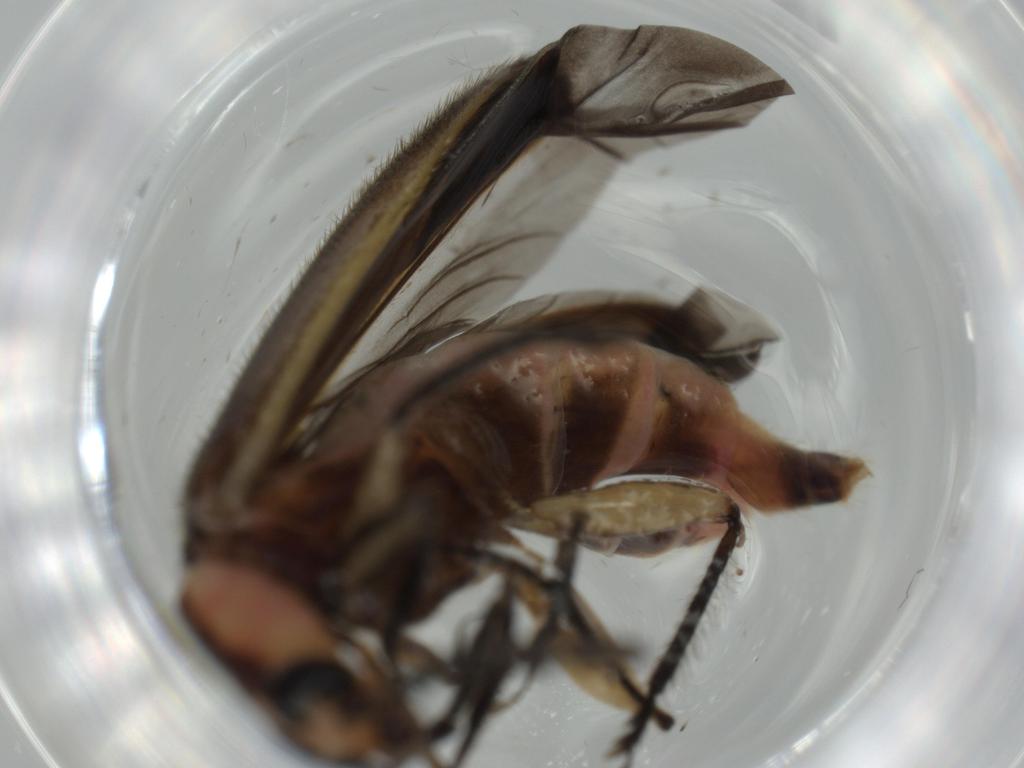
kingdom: Animalia
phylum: Arthropoda
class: Insecta
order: Coleoptera
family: Cleridae
